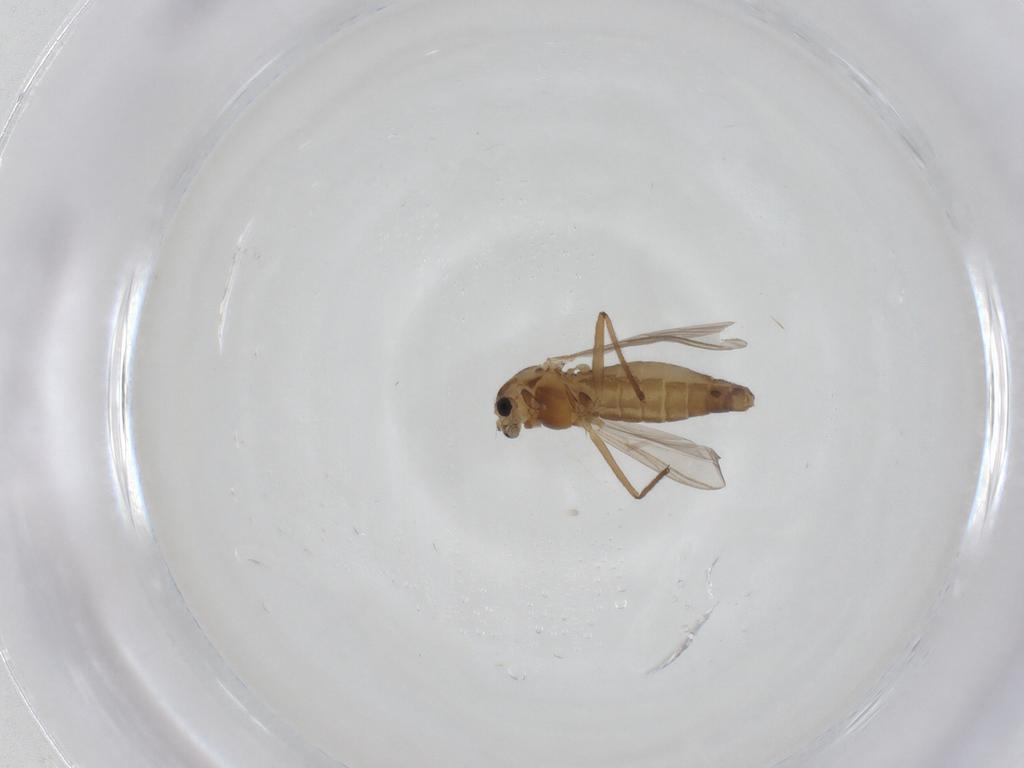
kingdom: Animalia
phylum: Arthropoda
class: Insecta
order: Diptera
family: Chironomidae
